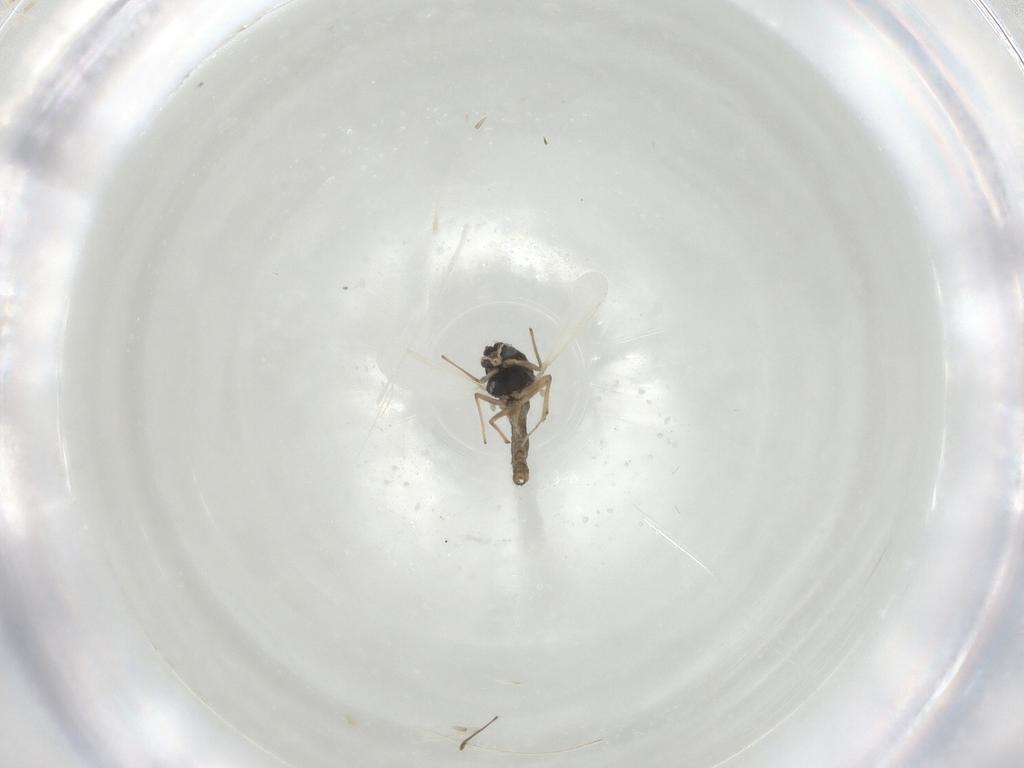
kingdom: Animalia
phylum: Arthropoda
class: Insecta
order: Diptera
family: Chironomidae
